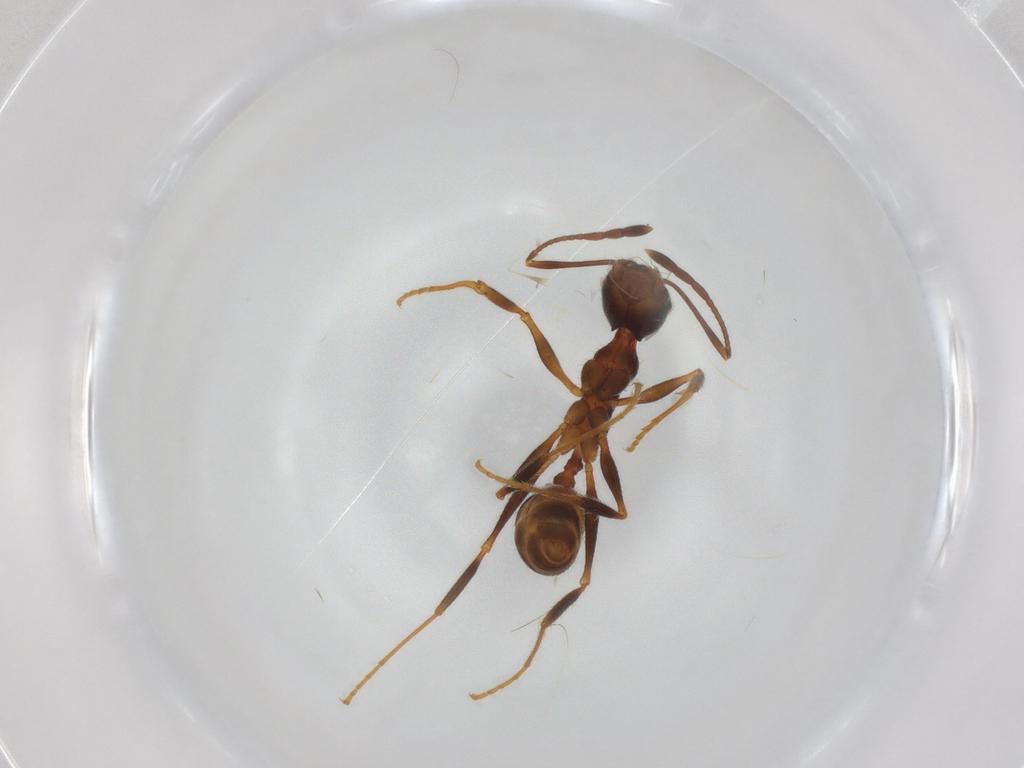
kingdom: Animalia
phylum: Arthropoda
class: Insecta
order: Hymenoptera
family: Formicidae
